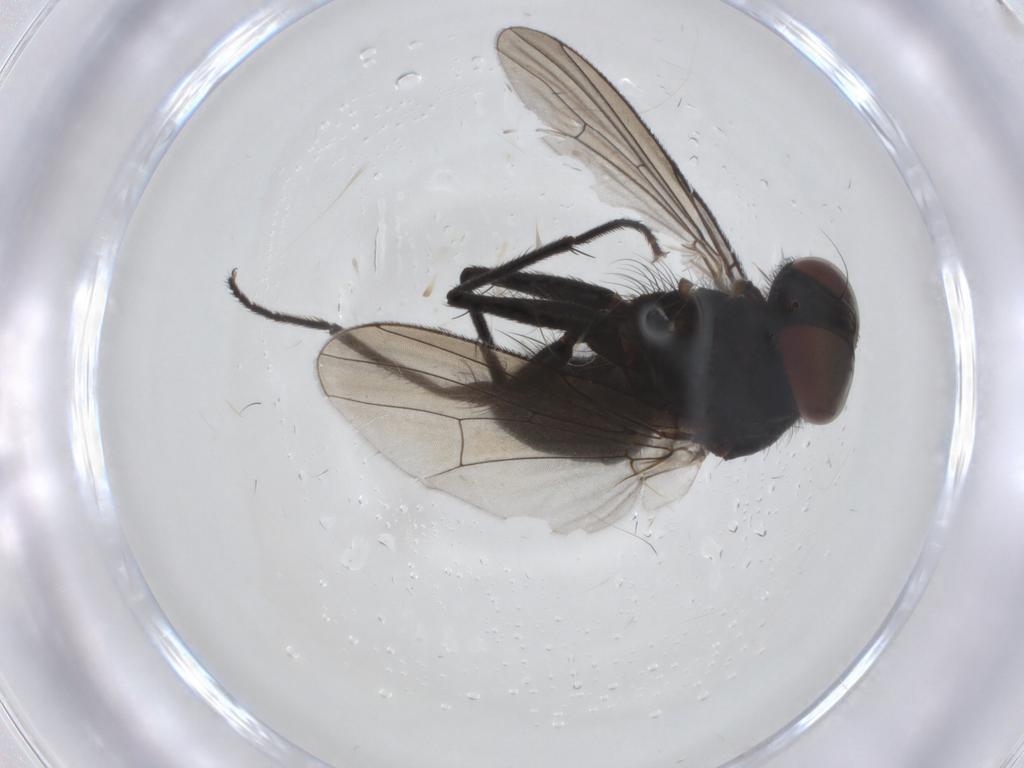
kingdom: Animalia
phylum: Arthropoda
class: Insecta
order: Diptera
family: Muscidae
